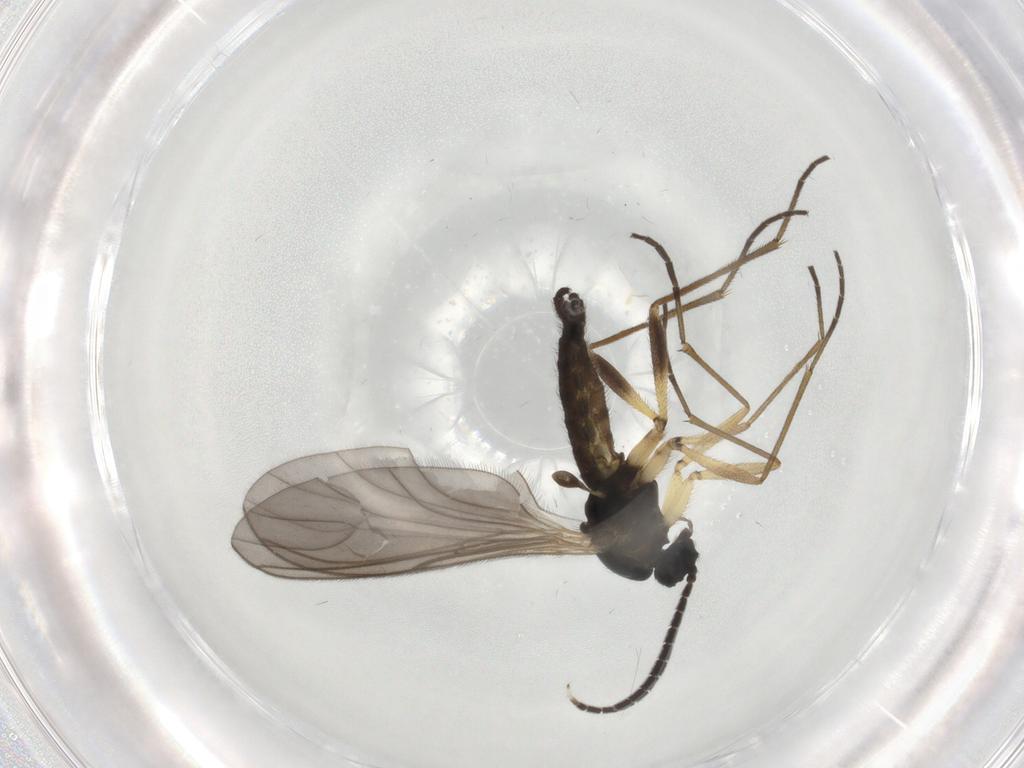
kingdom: Animalia
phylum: Arthropoda
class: Insecta
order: Diptera
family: Sciaridae
